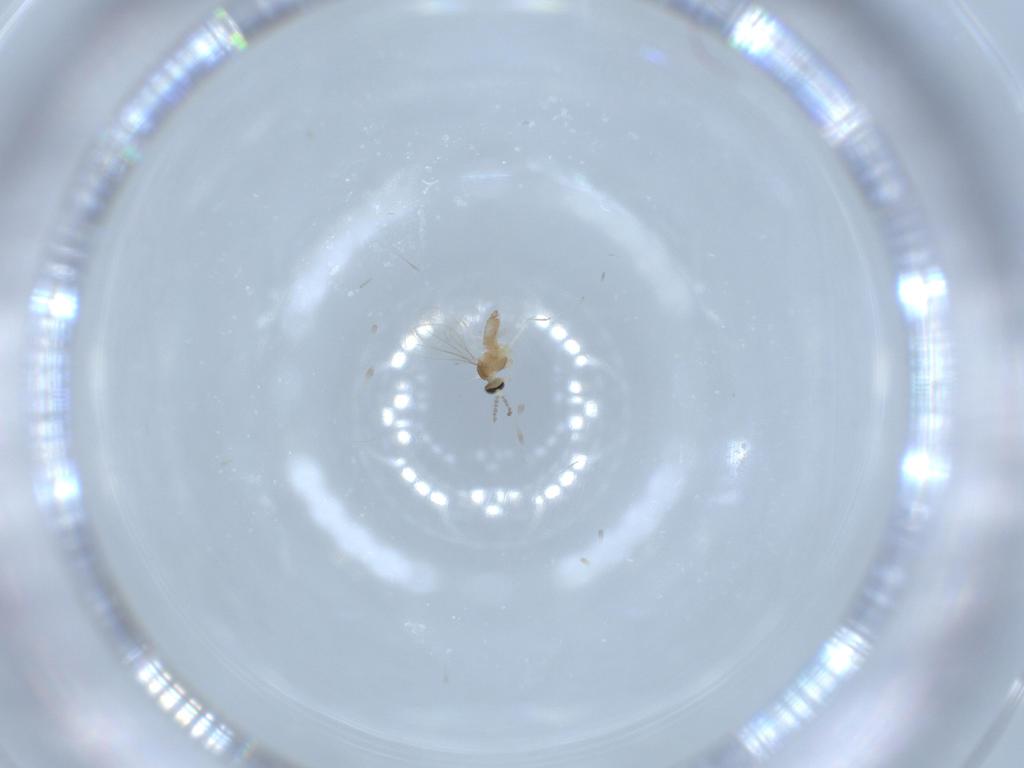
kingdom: Animalia
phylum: Arthropoda
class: Insecta
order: Diptera
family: Cecidomyiidae
